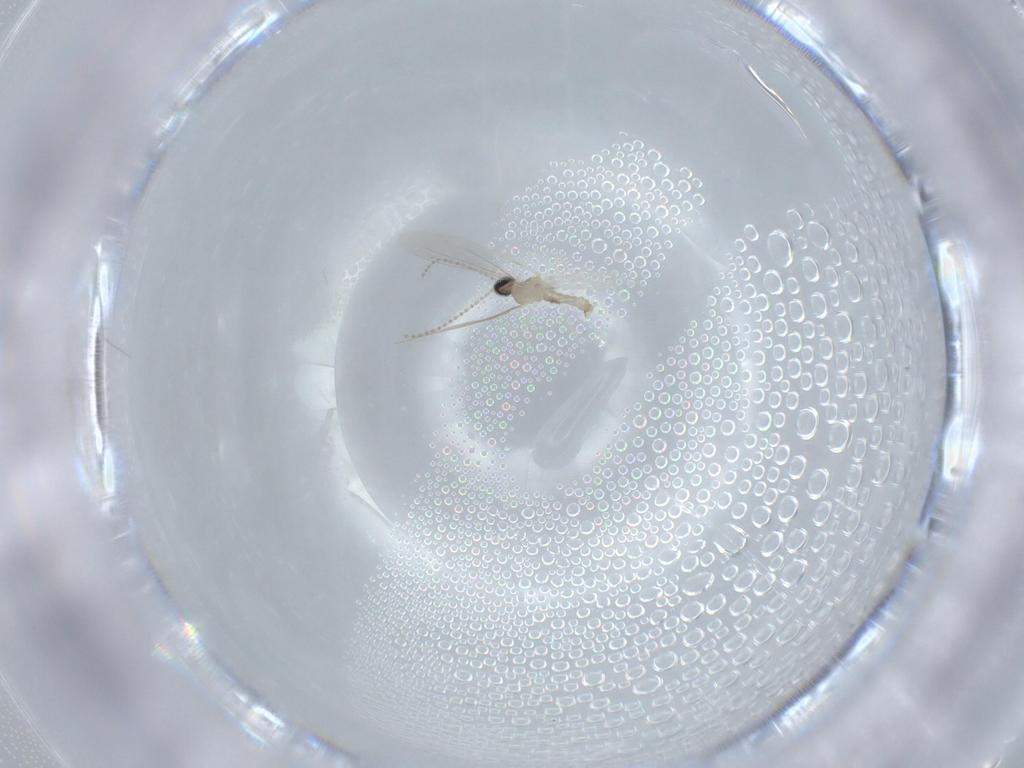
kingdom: Animalia
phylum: Arthropoda
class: Insecta
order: Diptera
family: Cecidomyiidae
